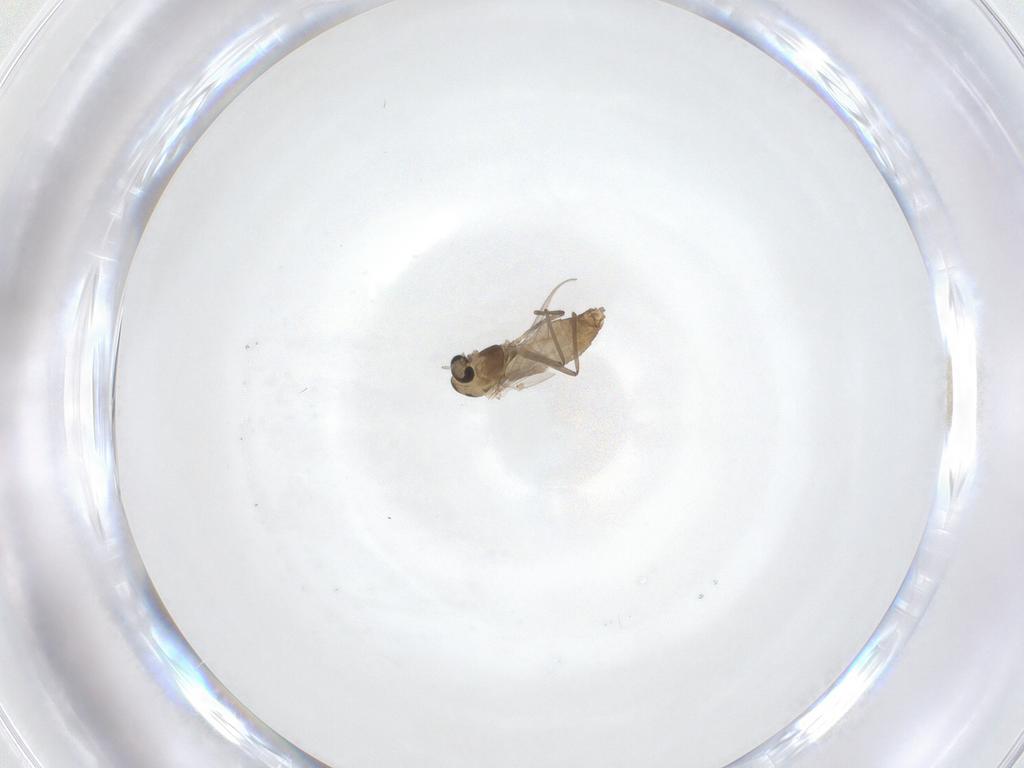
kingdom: Animalia
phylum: Arthropoda
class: Insecta
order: Diptera
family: Chironomidae
